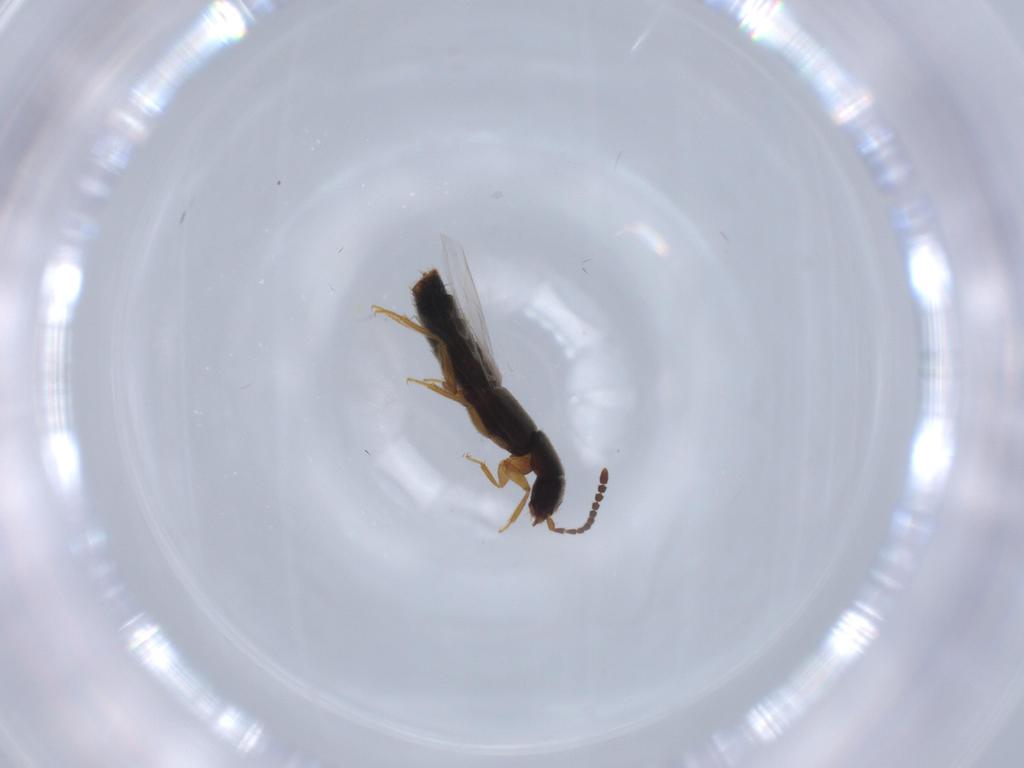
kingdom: Animalia
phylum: Arthropoda
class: Insecta
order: Coleoptera
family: Staphylinidae
